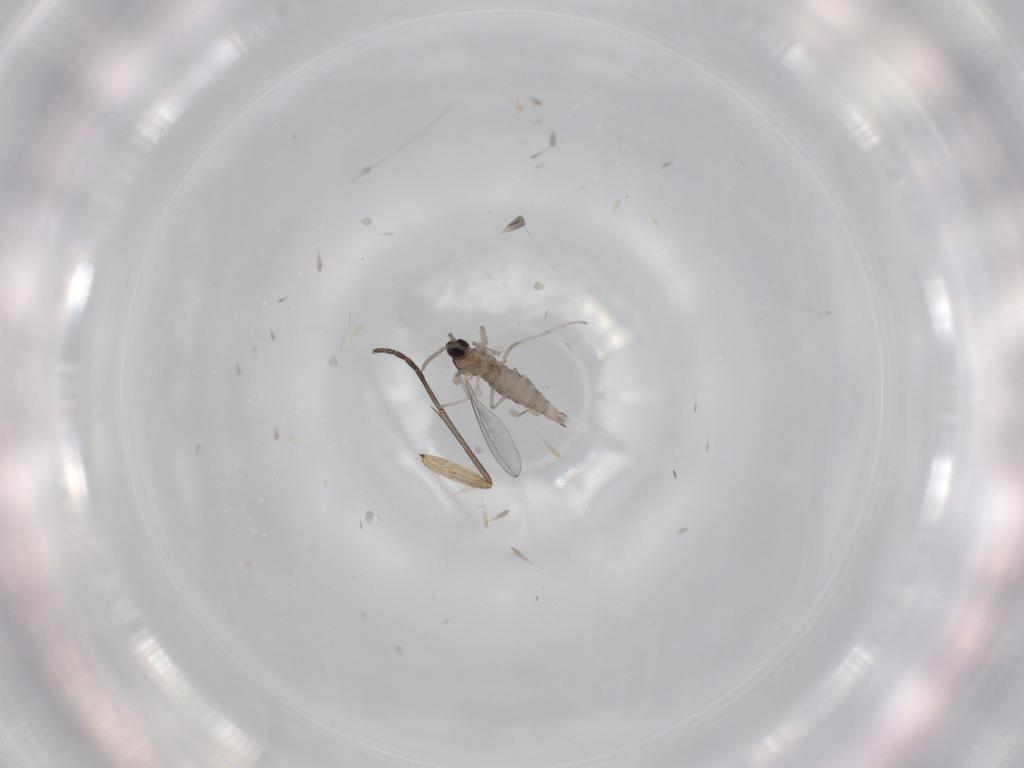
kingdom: Animalia
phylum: Arthropoda
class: Insecta
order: Diptera
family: Cecidomyiidae
